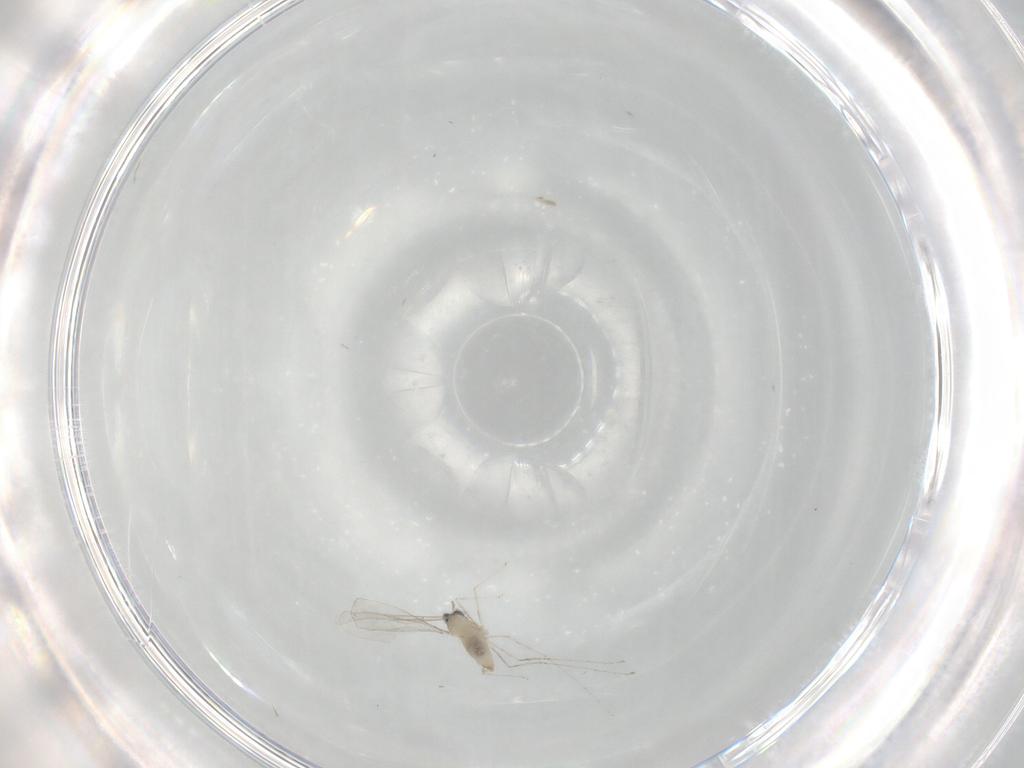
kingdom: Animalia
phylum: Arthropoda
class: Insecta
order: Diptera
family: Cecidomyiidae
